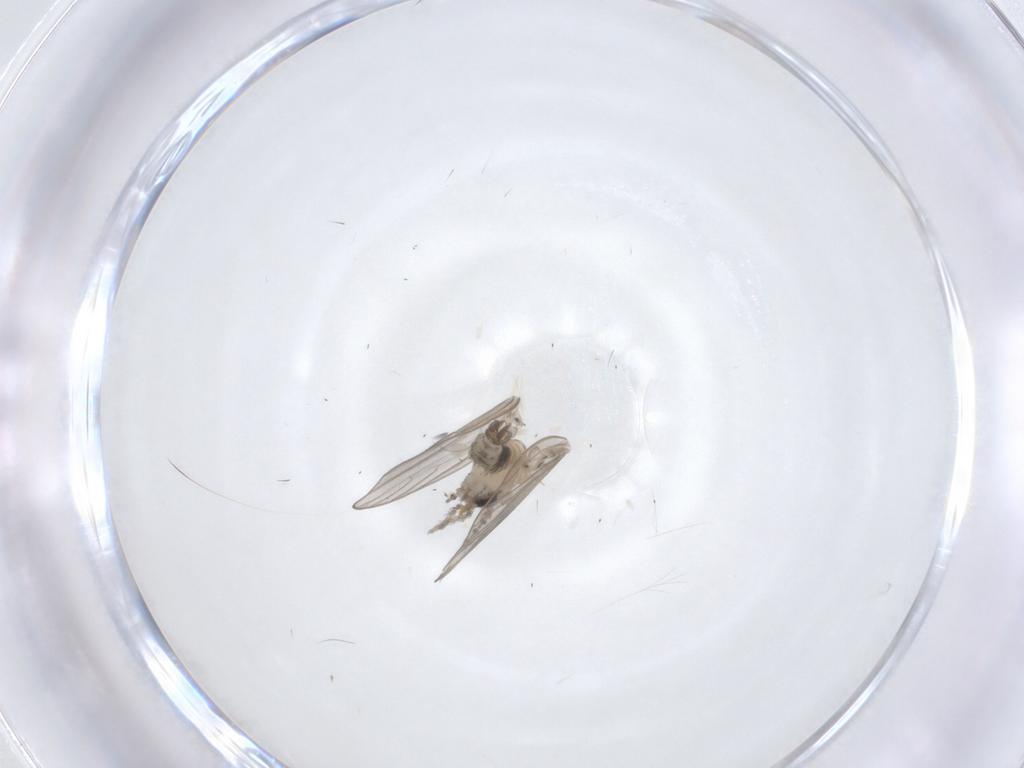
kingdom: Animalia
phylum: Arthropoda
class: Insecta
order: Diptera
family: Psychodidae
